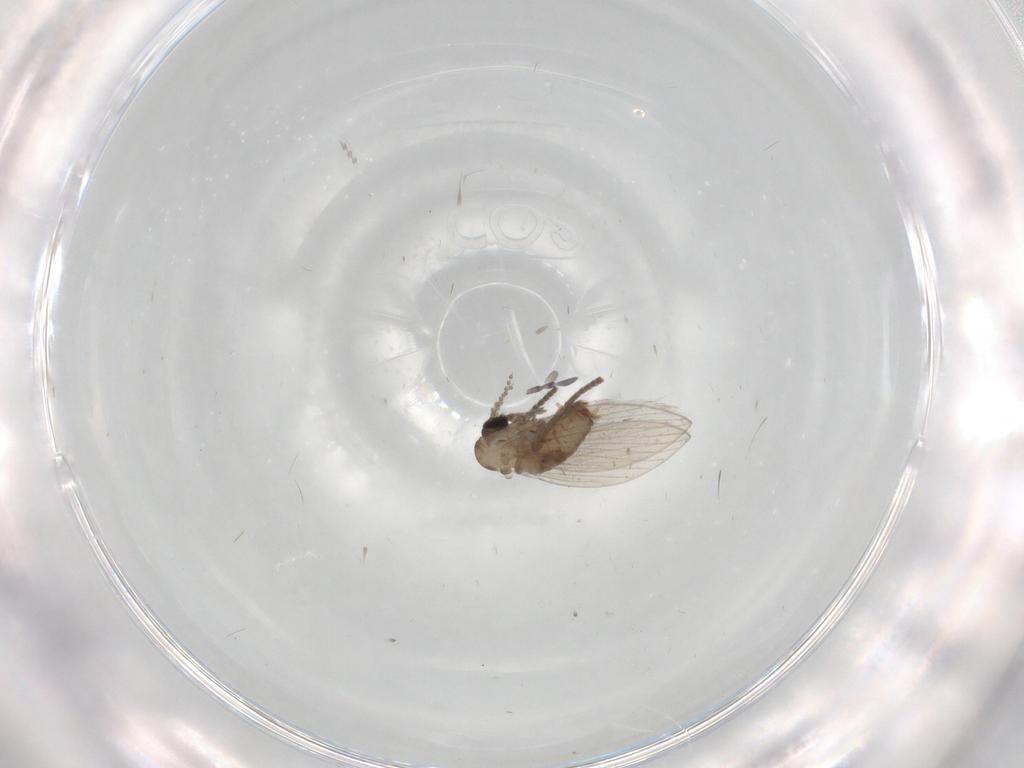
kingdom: Animalia
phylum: Arthropoda
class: Insecta
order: Diptera
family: Psychodidae
